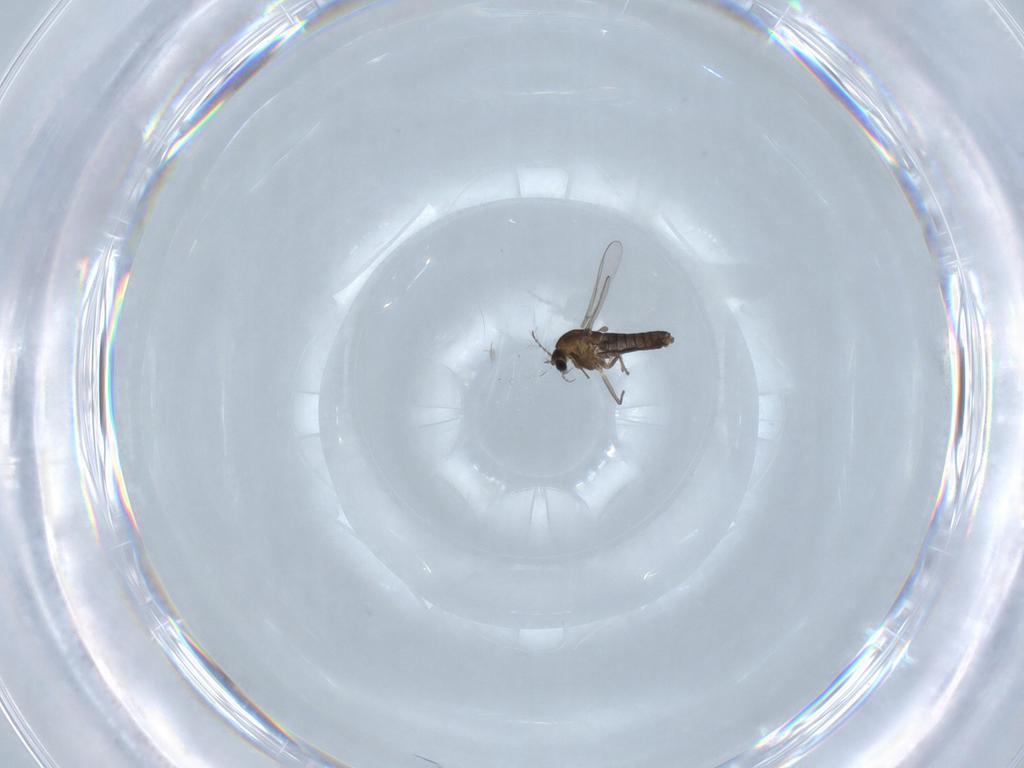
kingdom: Animalia
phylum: Arthropoda
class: Insecta
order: Diptera
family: Chironomidae
